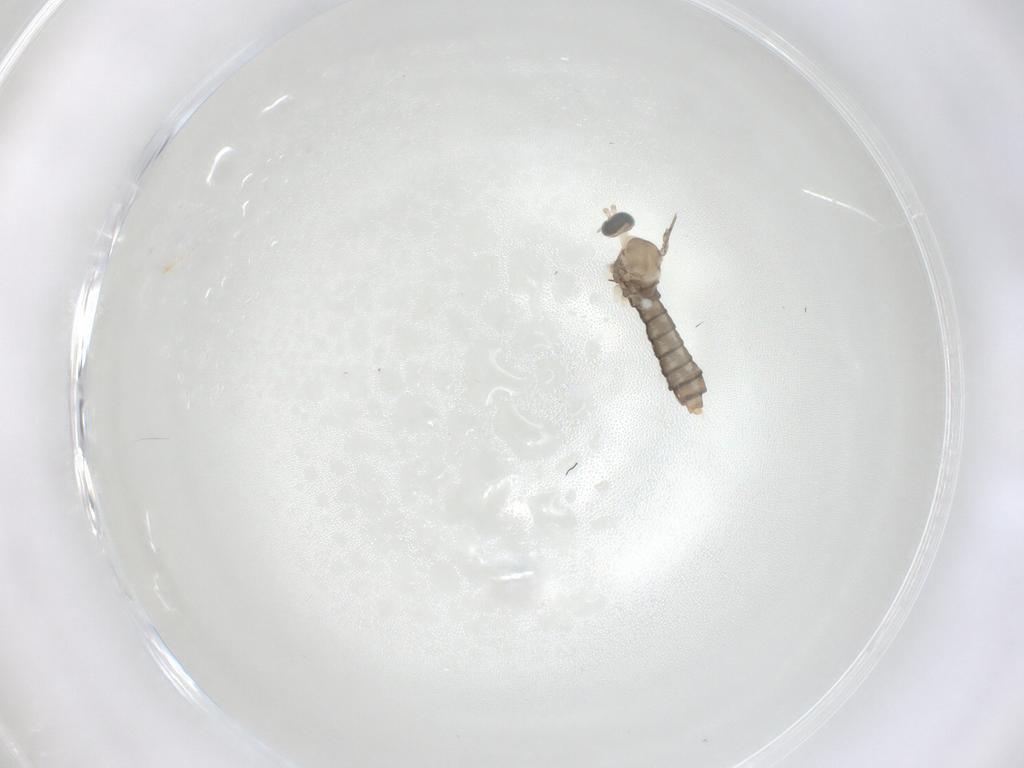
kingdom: Animalia
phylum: Arthropoda
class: Insecta
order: Diptera
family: Cecidomyiidae
